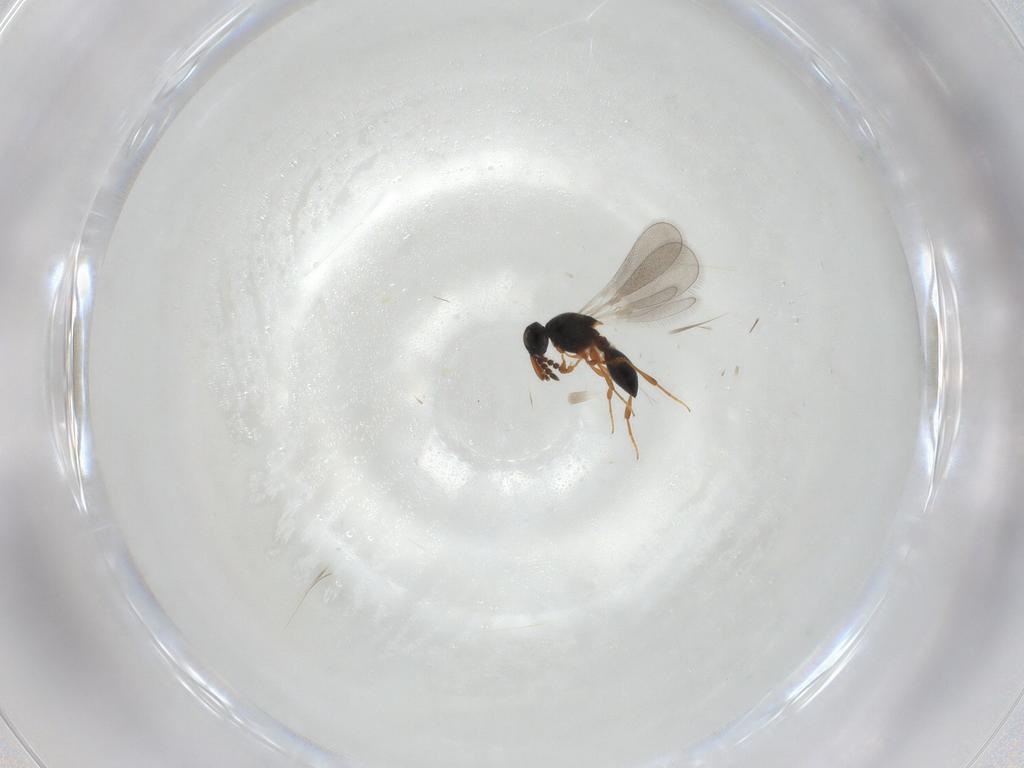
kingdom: Animalia
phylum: Arthropoda
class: Insecta
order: Hymenoptera
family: Platygastridae
